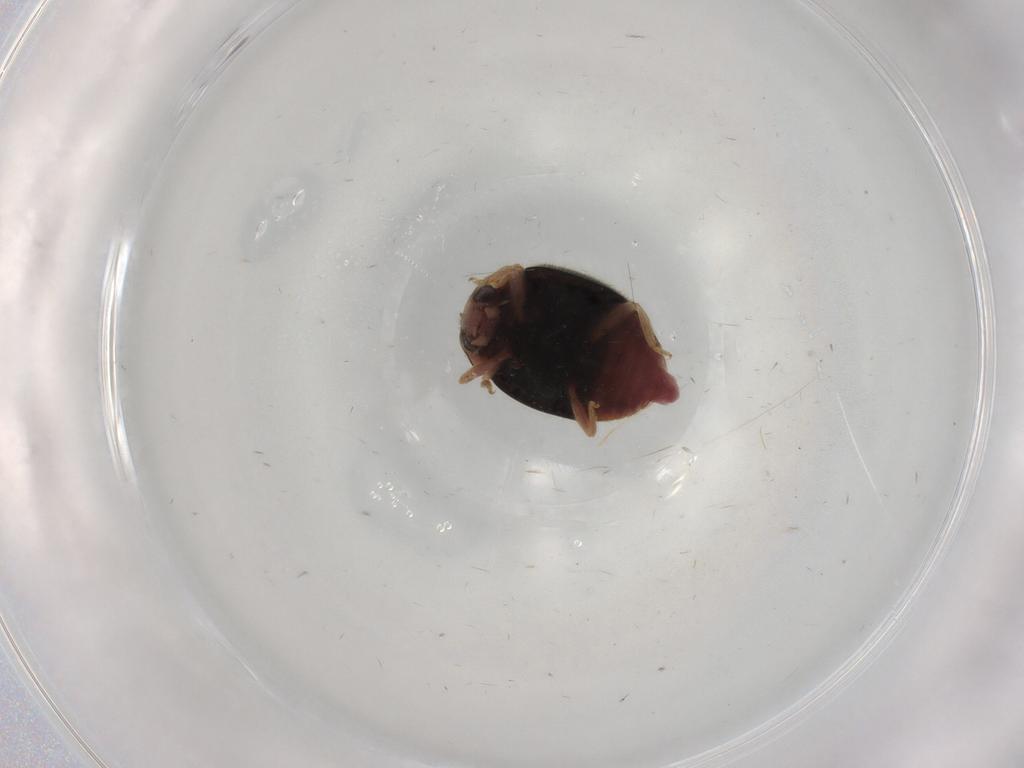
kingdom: Animalia
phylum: Arthropoda
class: Insecta
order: Coleoptera
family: Coccinellidae
